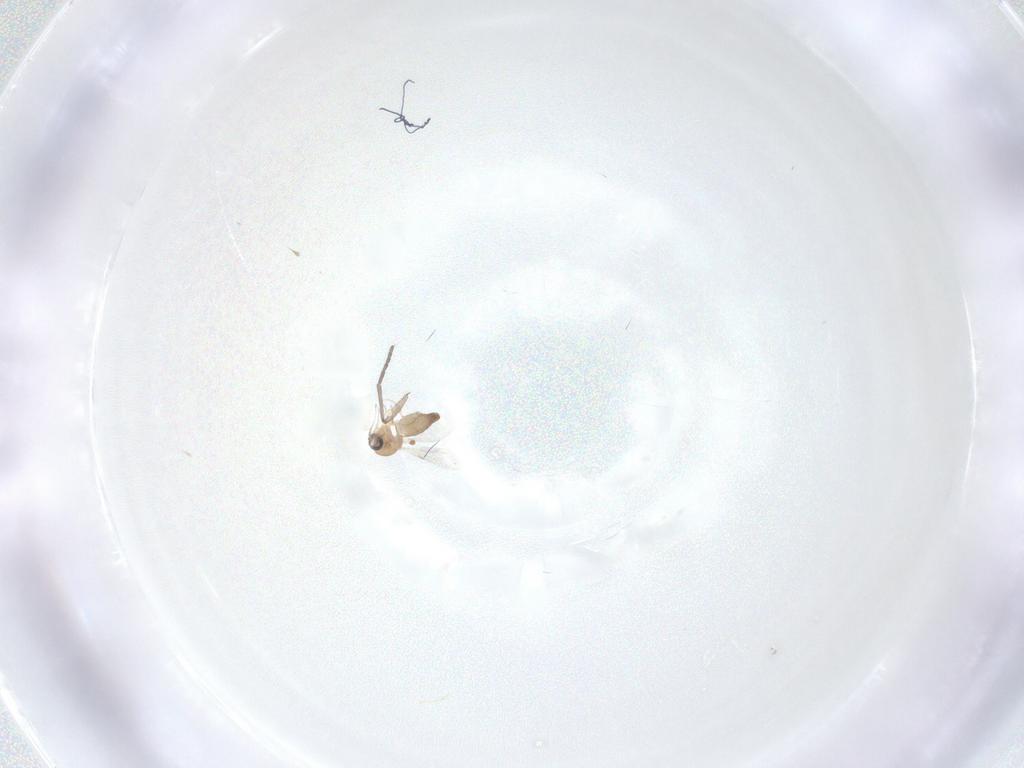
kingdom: Animalia
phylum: Arthropoda
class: Insecta
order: Diptera
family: Ceratopogonidae
